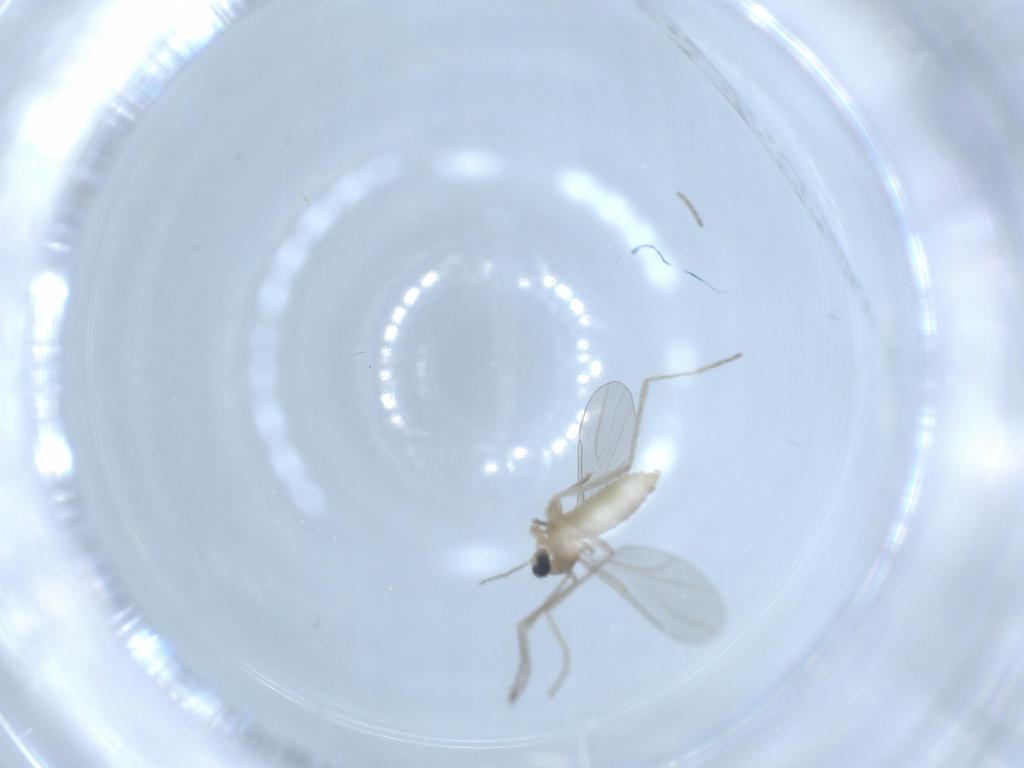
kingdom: Animalia
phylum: Arthropoda
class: Insecta
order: Diptera
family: Cecidomyiidae
